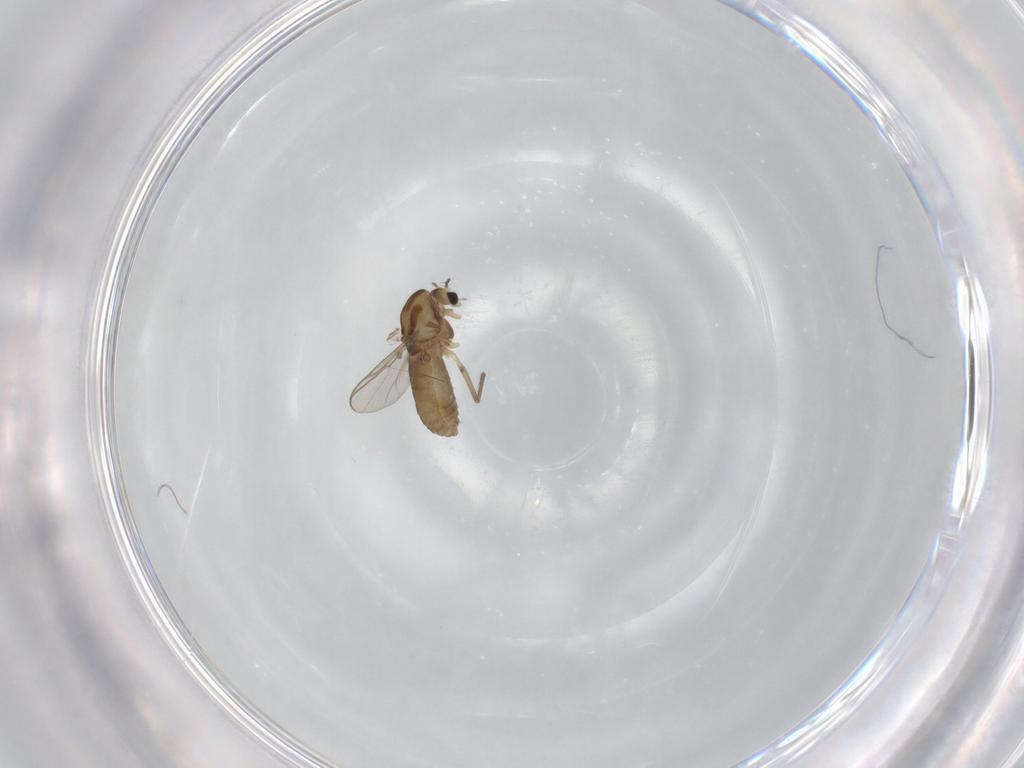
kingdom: Animalia
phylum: Arthropoda
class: Insecta
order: Diptera
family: Chironomidae
